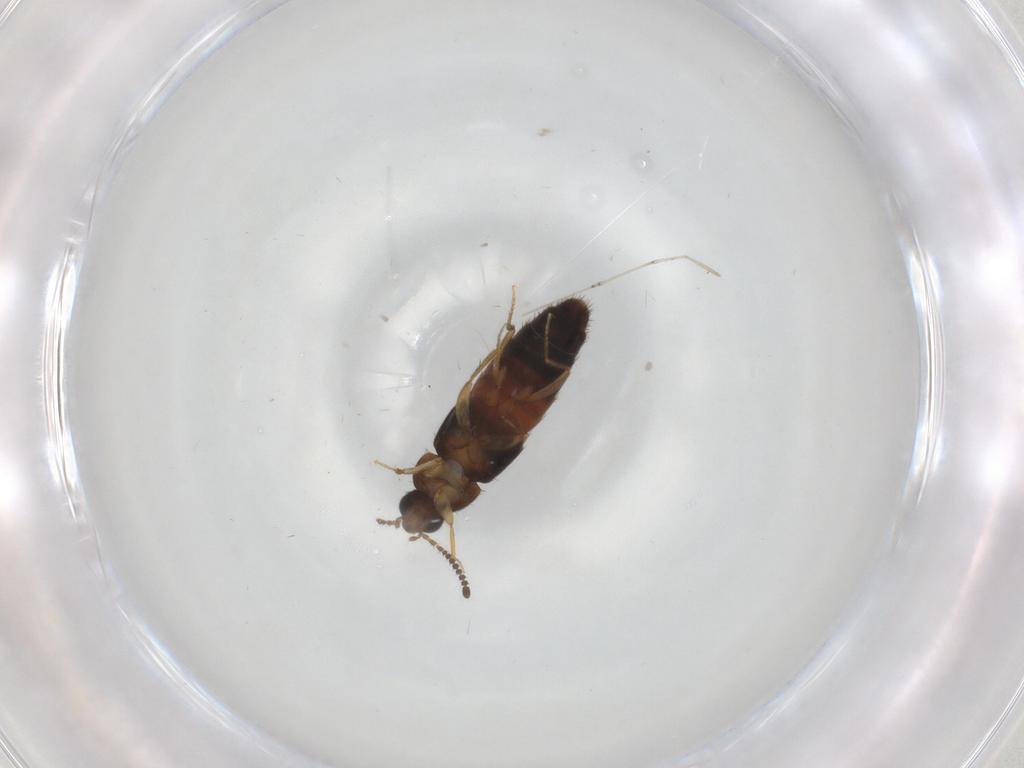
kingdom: Animalia
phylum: Arthropoda
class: Insecta
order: Coleoptera
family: Staphylinidae
